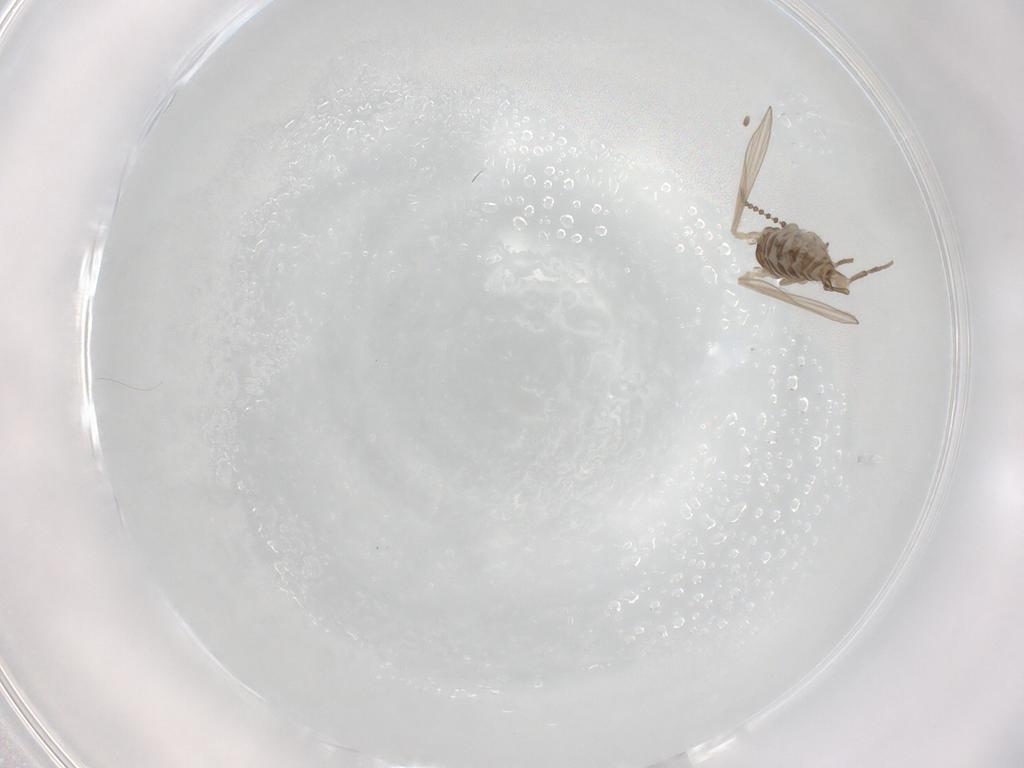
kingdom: Animalia
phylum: Arthropoda
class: Insecta
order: Diptera
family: Psychodidae
